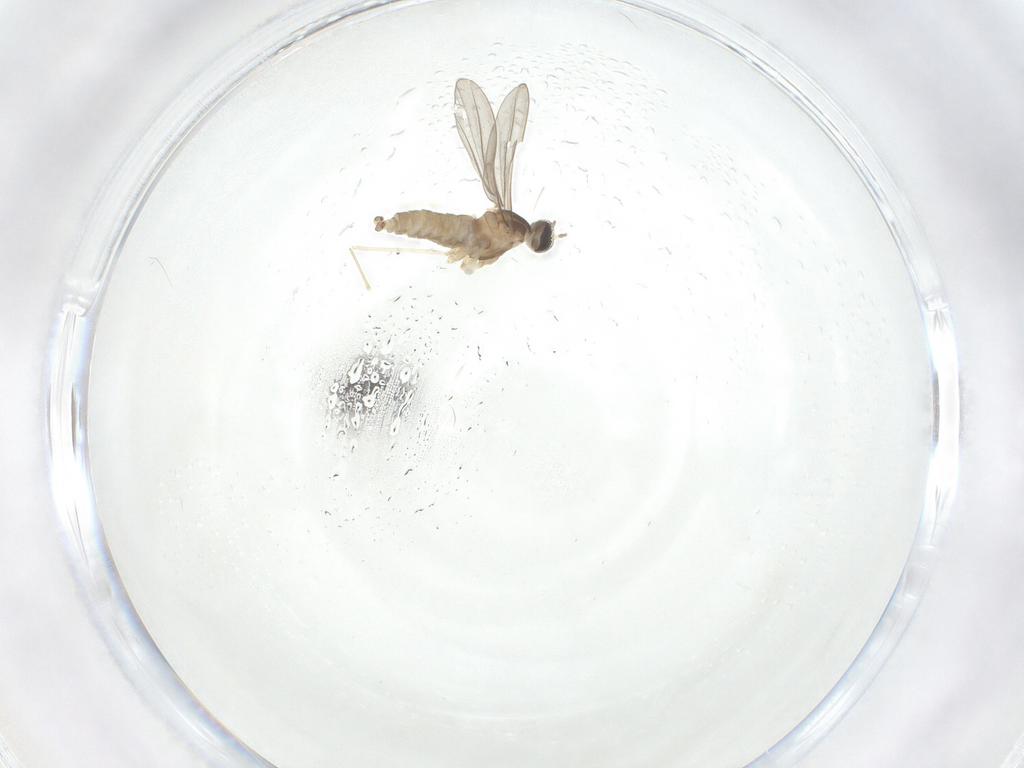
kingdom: Animalia
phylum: Arthropoda
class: Insecta
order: Diptera
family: Cecidomyiidae
